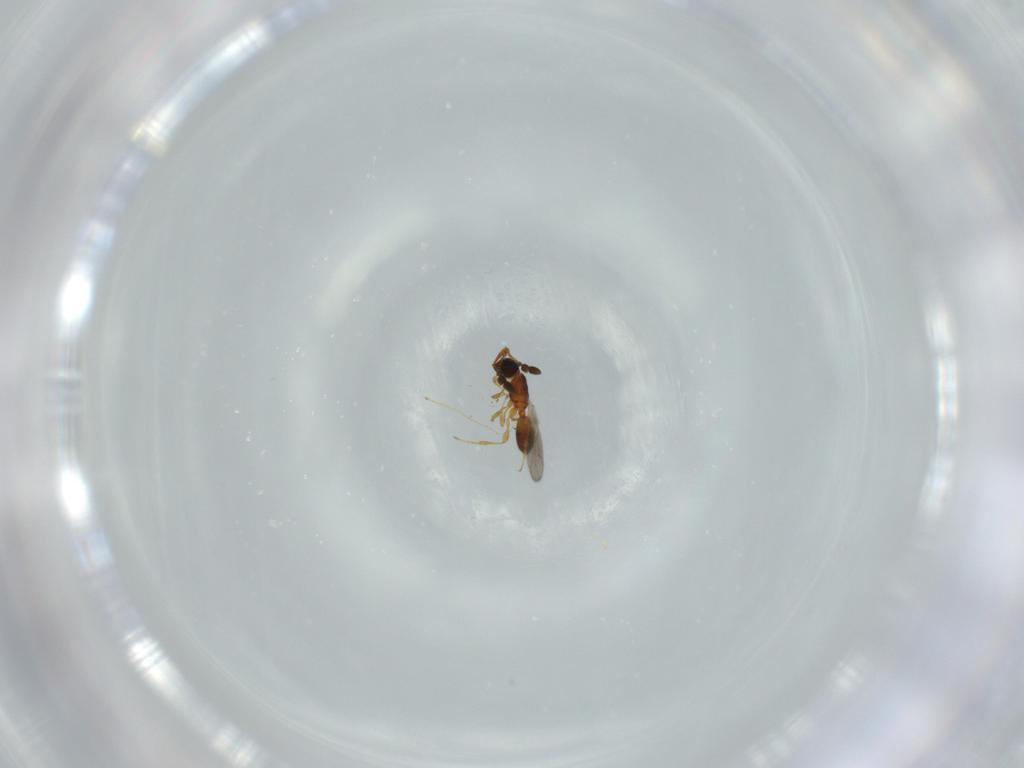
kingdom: Animalia
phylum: Arthropoda
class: Insecta
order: Hymenoptera
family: Diapriidae
